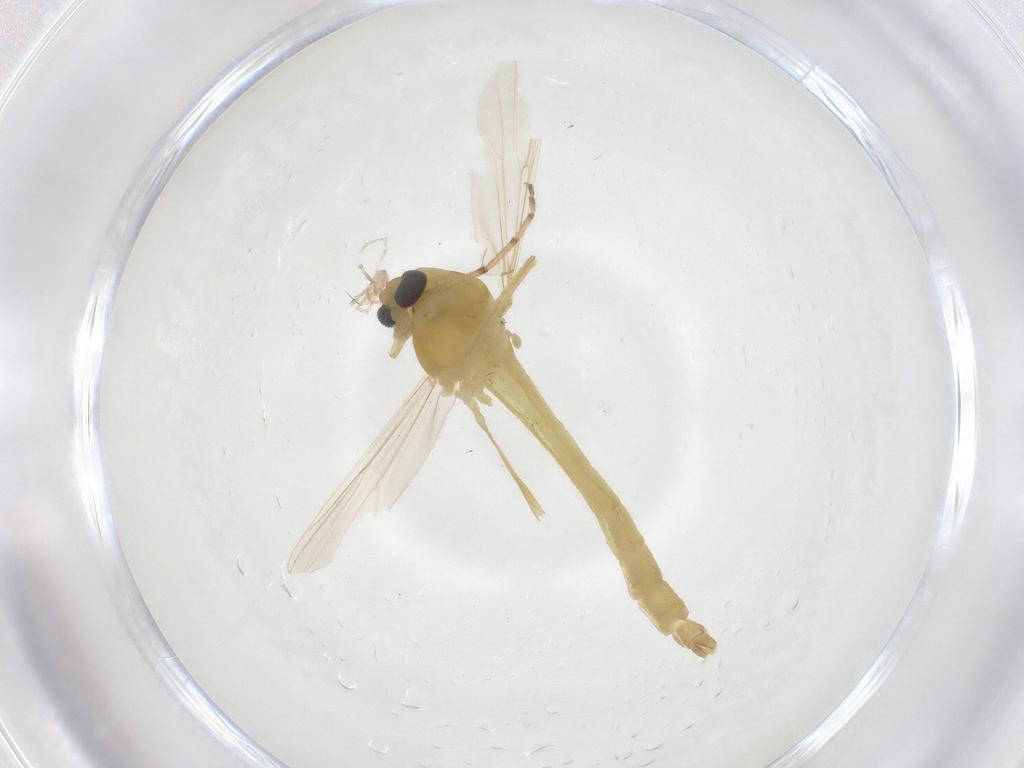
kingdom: Animalia
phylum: Arthropoda
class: Insecta
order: Diptera
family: Chironomidae
